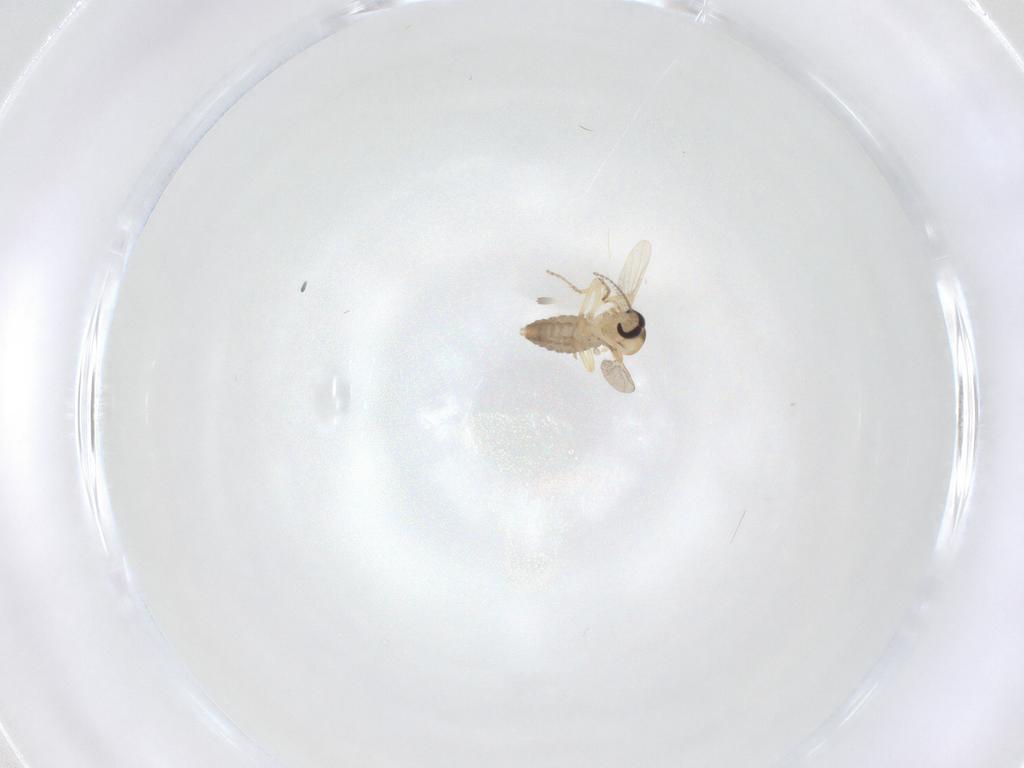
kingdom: Animalia
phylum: Arthropoda
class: Insecta
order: Diptera
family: Ceratopogonidae
